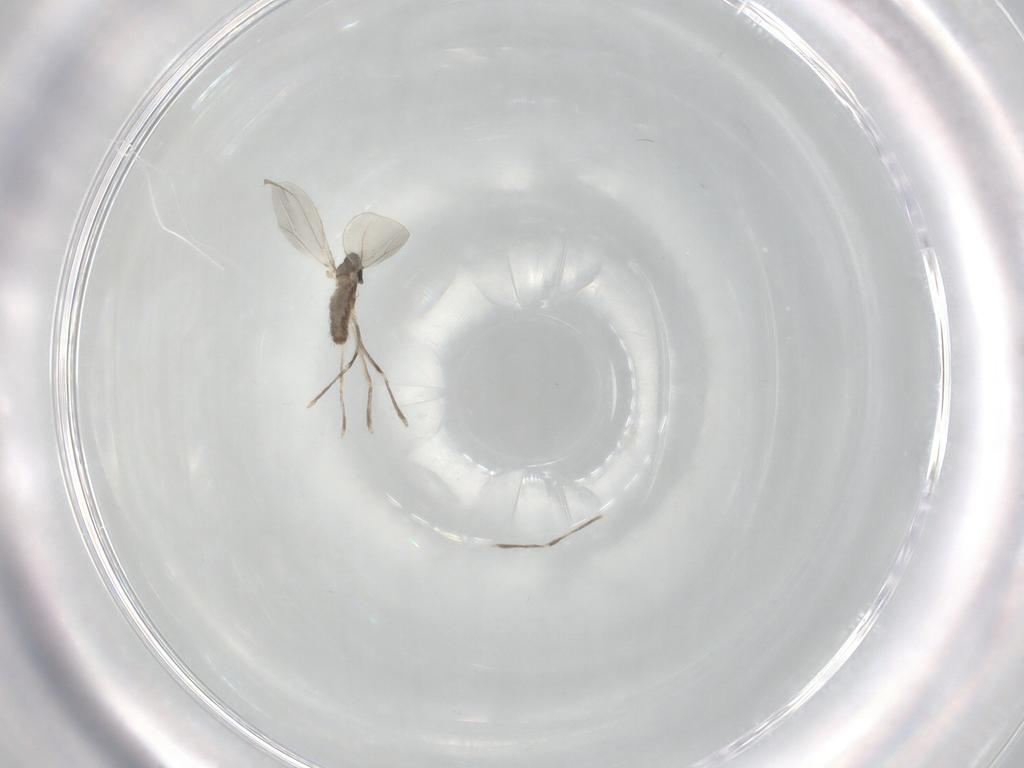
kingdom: Animalia
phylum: Arthropoda
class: Insecta
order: Diptera
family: Cecidomyiidae
